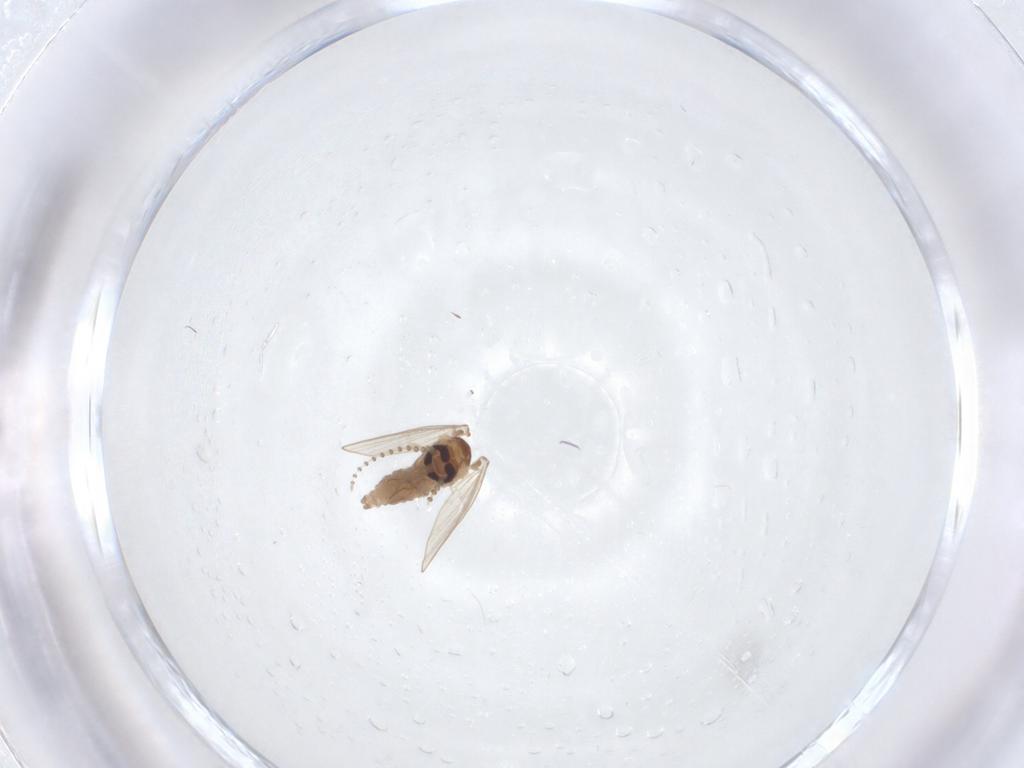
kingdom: Animalia
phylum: Arthropoda
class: Insecta
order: Diptera
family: Psychodidae
